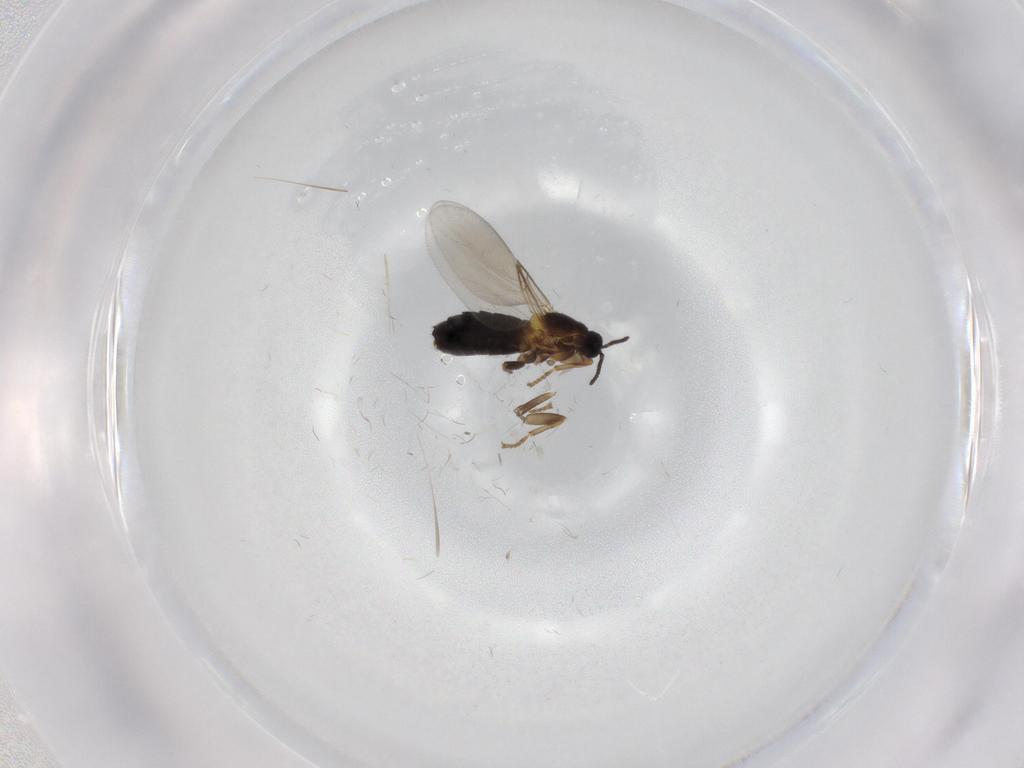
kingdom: Animalia
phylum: Arthropoda
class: Insecta
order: Diptera
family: Scatopsidae
